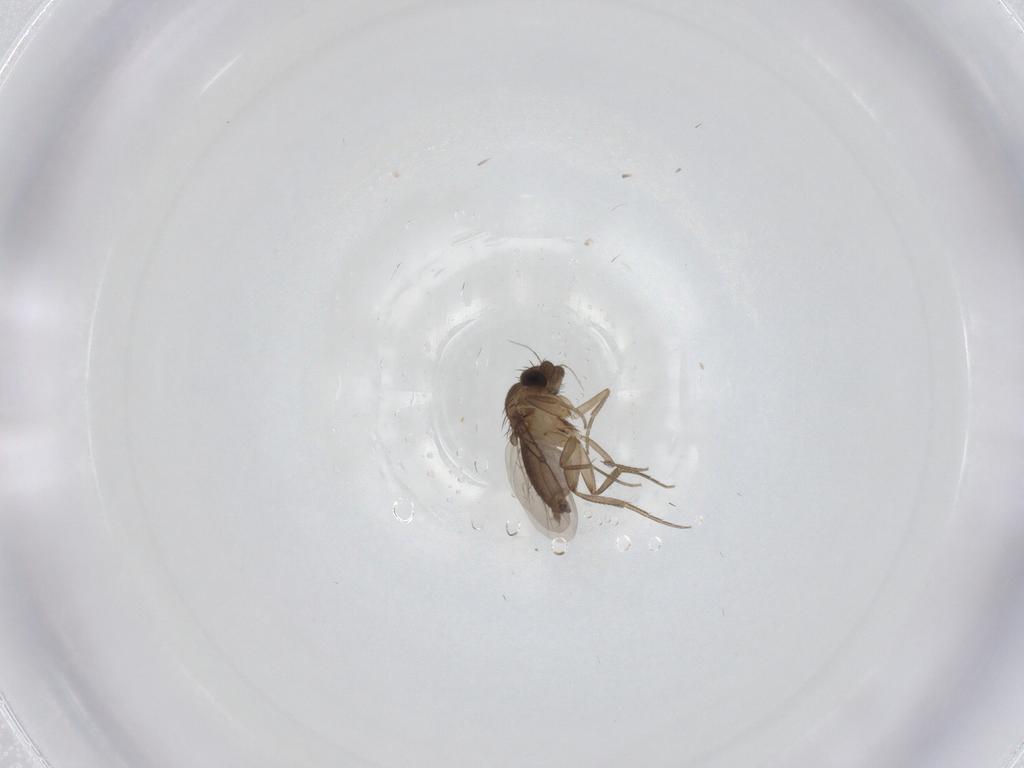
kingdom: Animalia
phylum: Arthropoda
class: Insecta
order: Diptera
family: Phoridae
